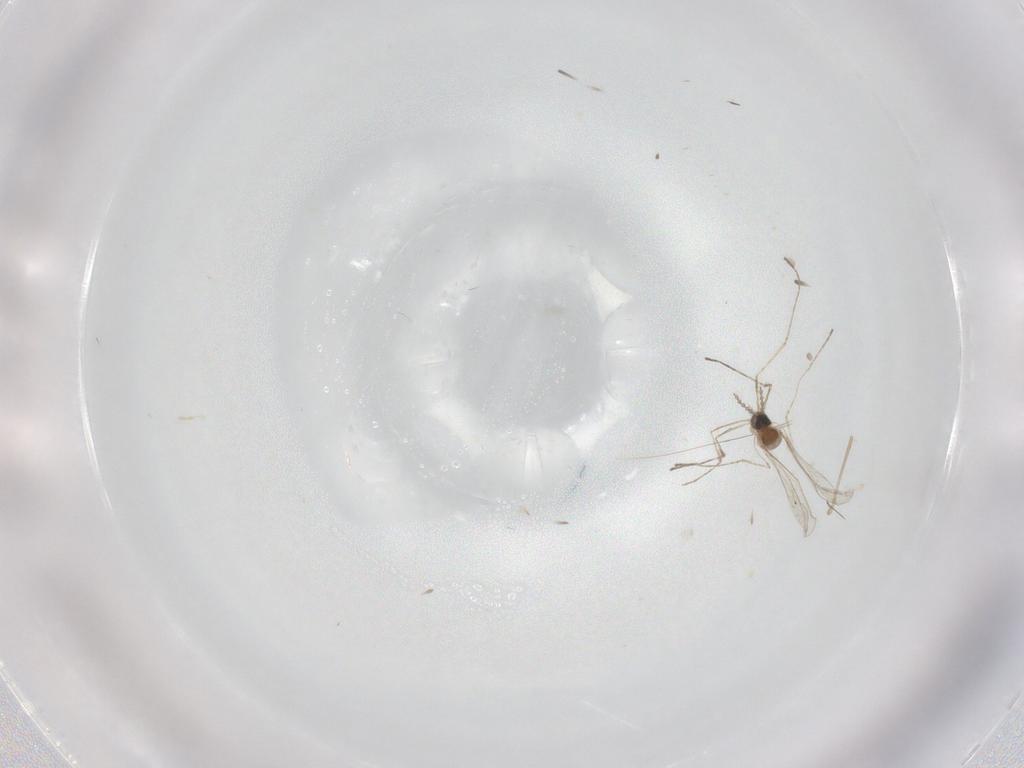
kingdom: Animalia
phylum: Arthropoda
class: Insecta
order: Diptera
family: Cecidomyiidae
